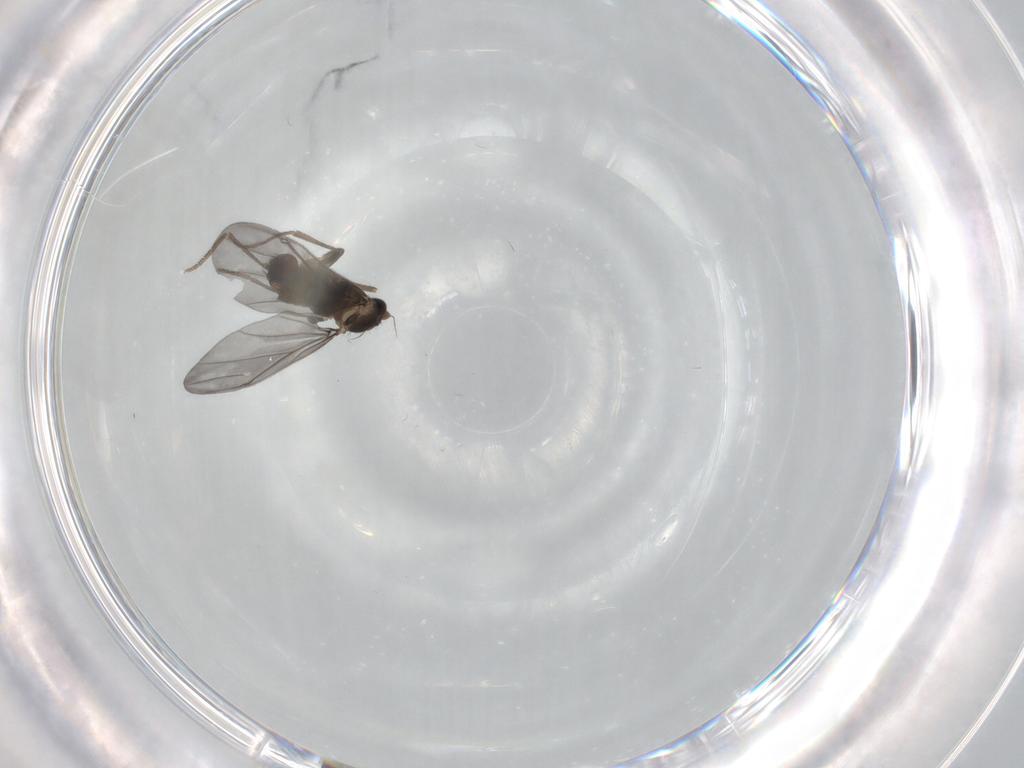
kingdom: Animalia
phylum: Arthropoda
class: Insecta
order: Diptera
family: Phoridae
